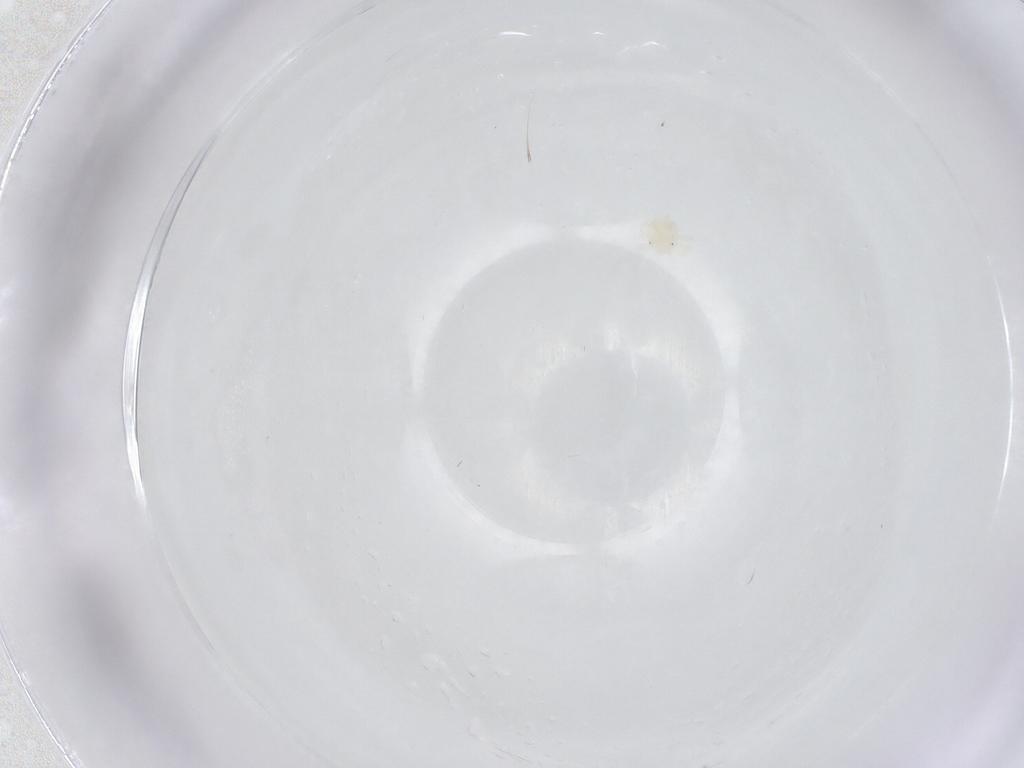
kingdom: Animalia
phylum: Arthropoda
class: Arachnida
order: Trombidiformes
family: Anystidae
